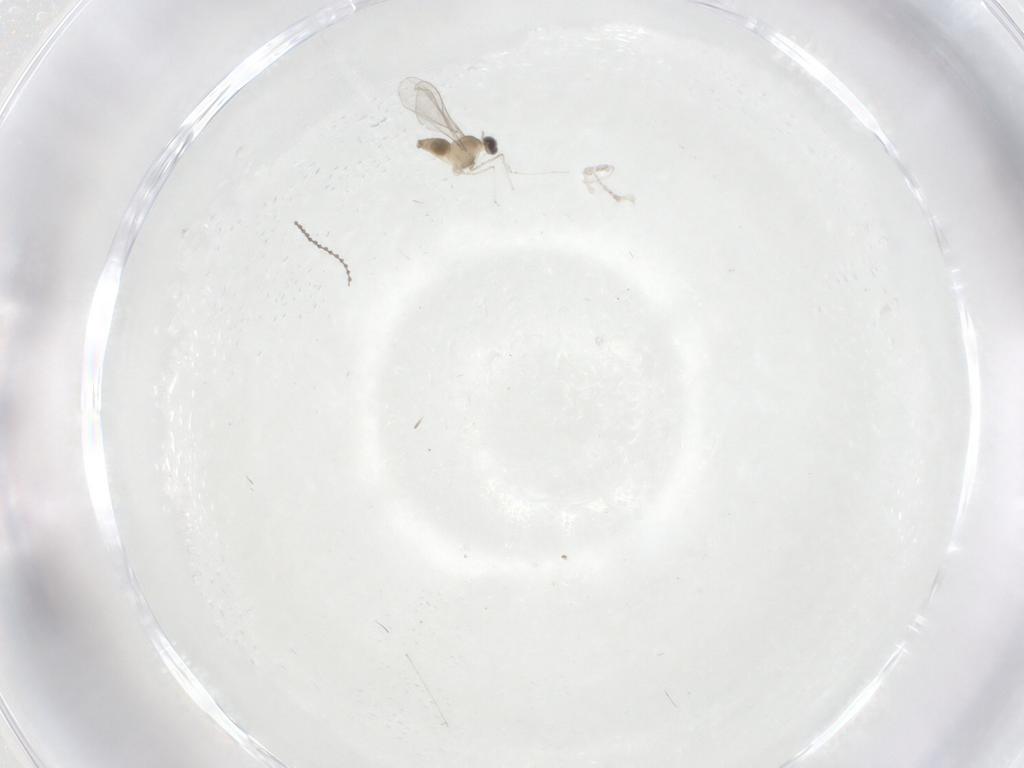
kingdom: Animalia
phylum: Arthropoda
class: Insecta
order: Diptera
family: Cecidomyiidae
